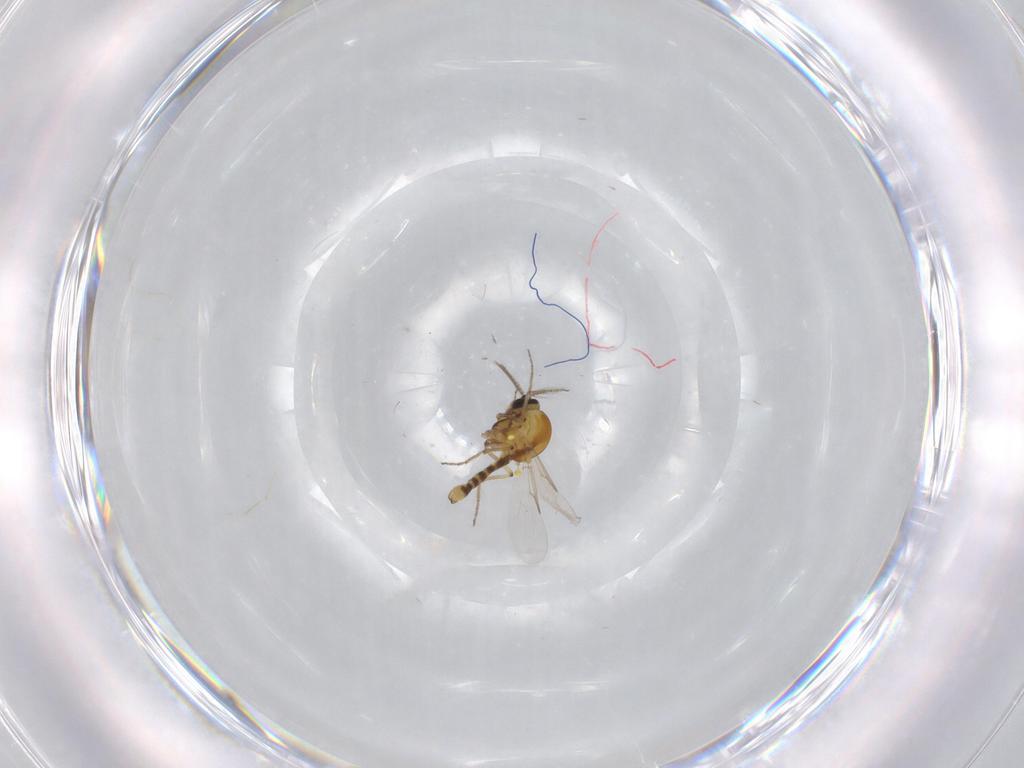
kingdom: Animalia
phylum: Arthropoda
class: Insecta
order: Diptera
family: Ceratopogonidae
